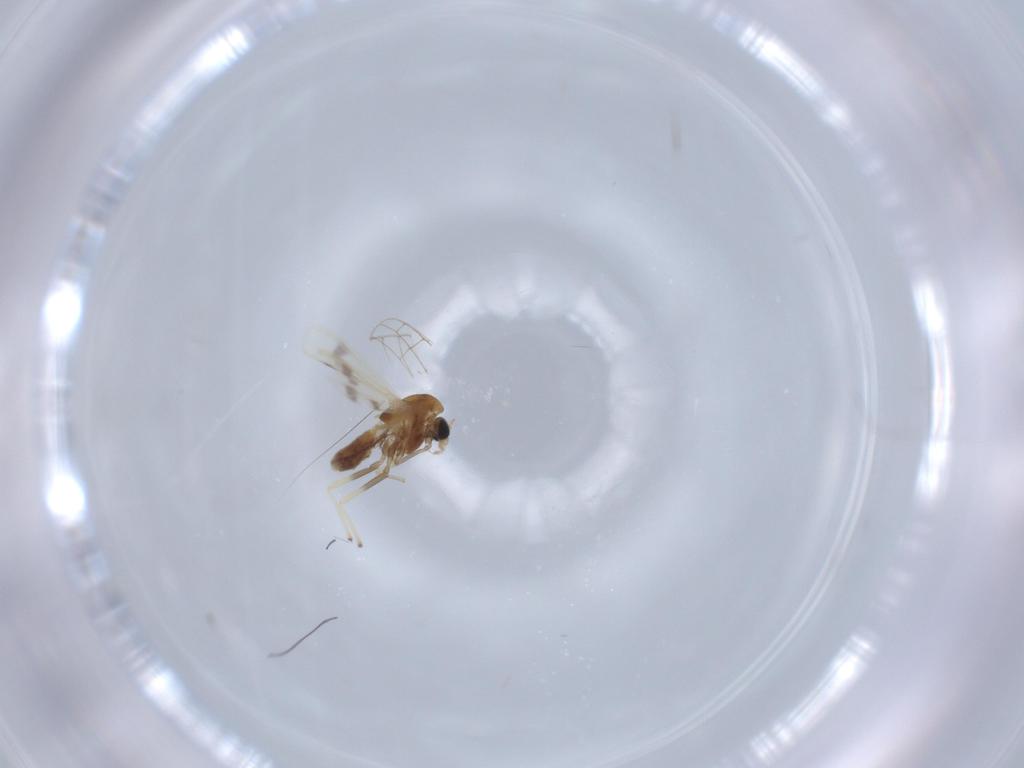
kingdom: Animalia
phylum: Arthropoda
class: Insecta
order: Diptera
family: Chironomidae
